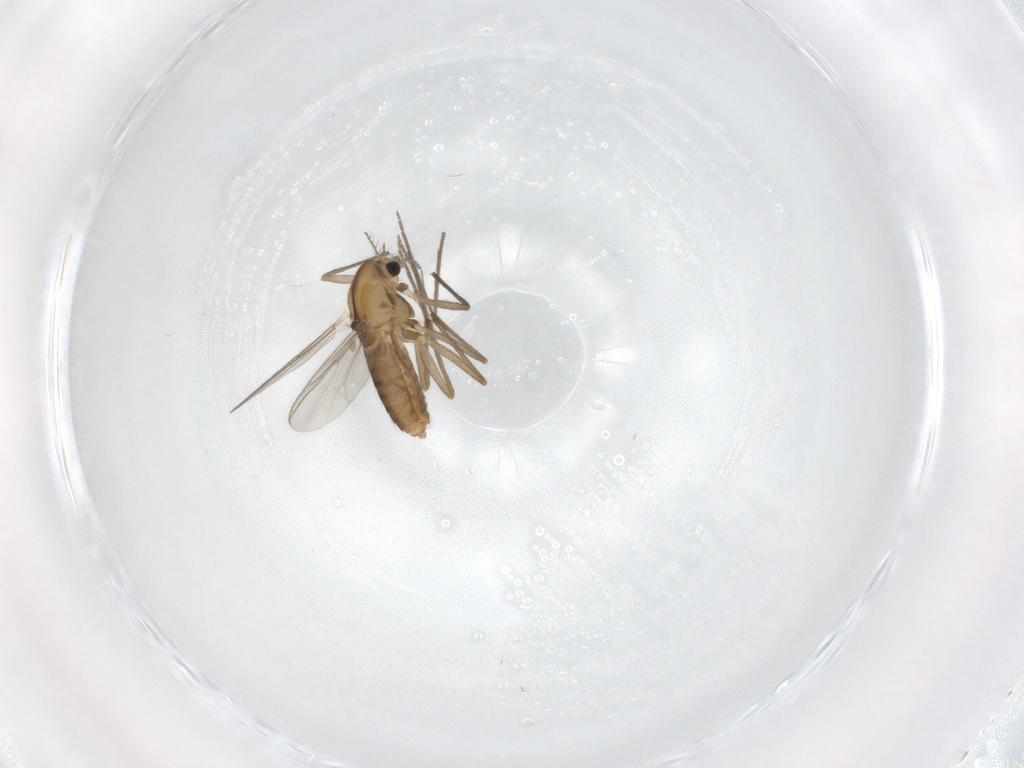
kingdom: Animalia
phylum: Arthropoda
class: Insecta
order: Diptera
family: Chironomidae
